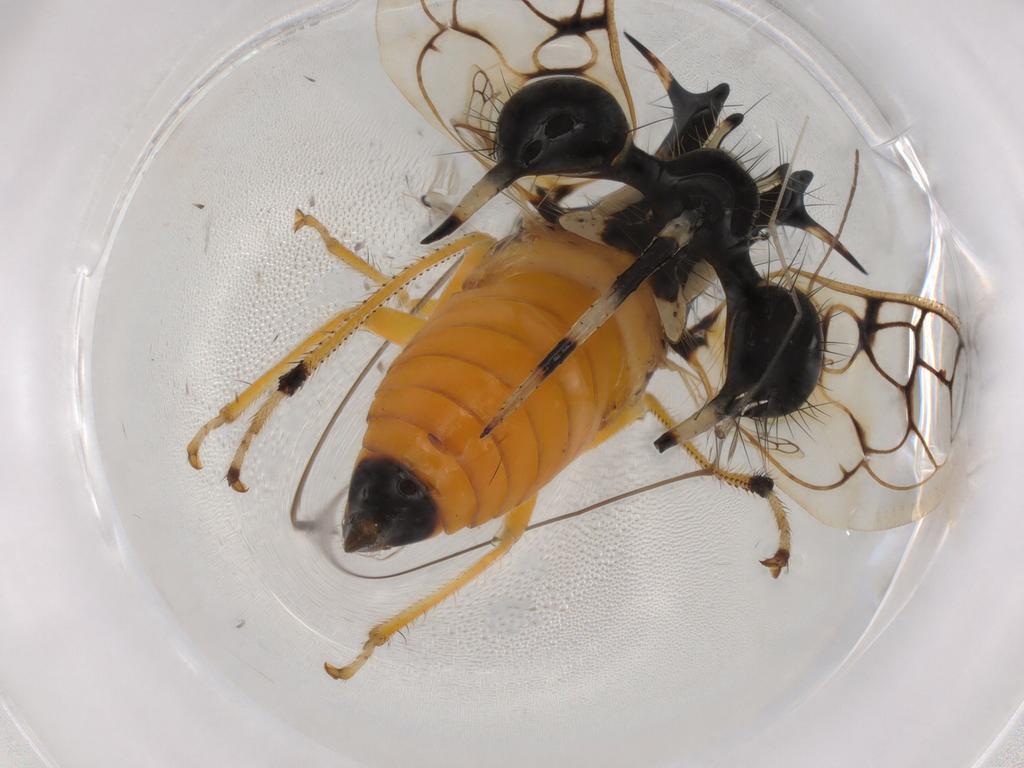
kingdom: Animalia
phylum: Arthropoda
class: Insecta
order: Hemiptera
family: Membracidae
